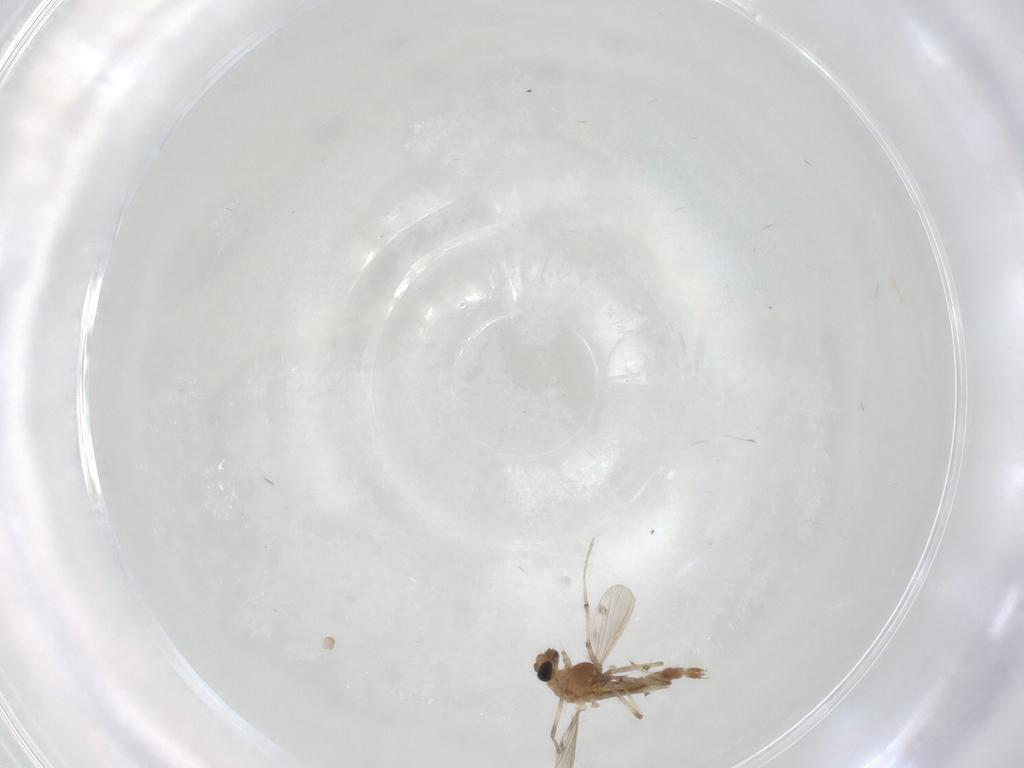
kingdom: Animalia
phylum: Arthropoda
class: Insecta
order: Diptera
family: Chironomidae
